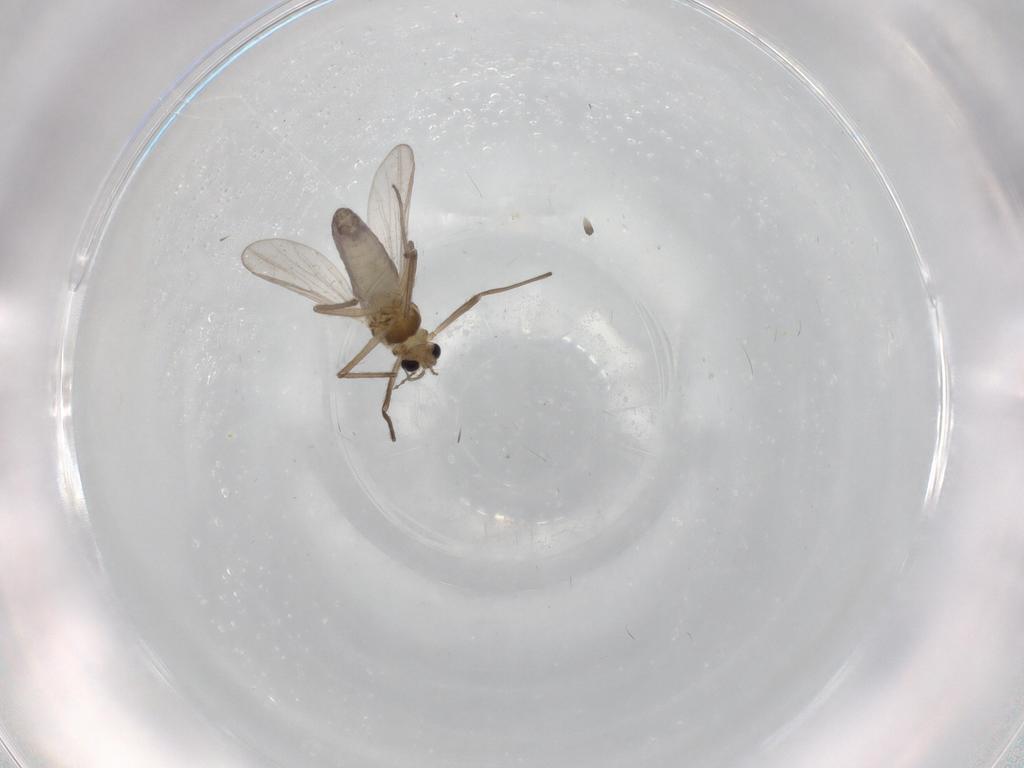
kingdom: Animalia
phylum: Arthropoda
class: Insecta
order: Diptera
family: Chironomidae
